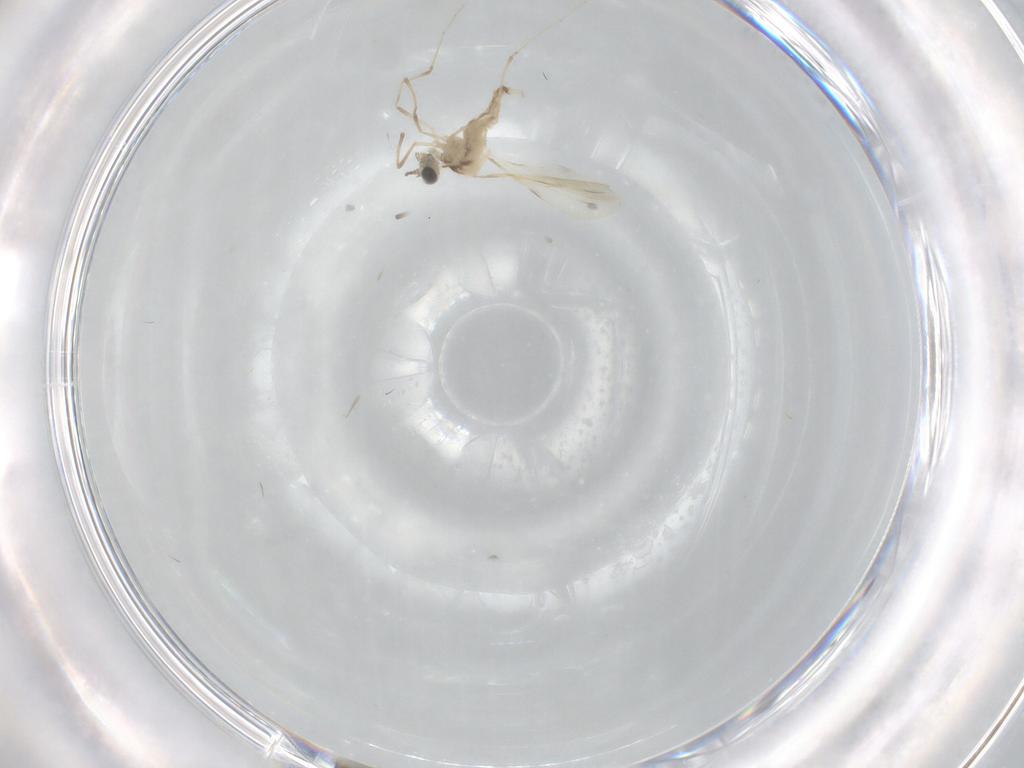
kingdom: Animalia
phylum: Arthropoda
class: Insecta
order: Diptera
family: Cecidomyiidae
